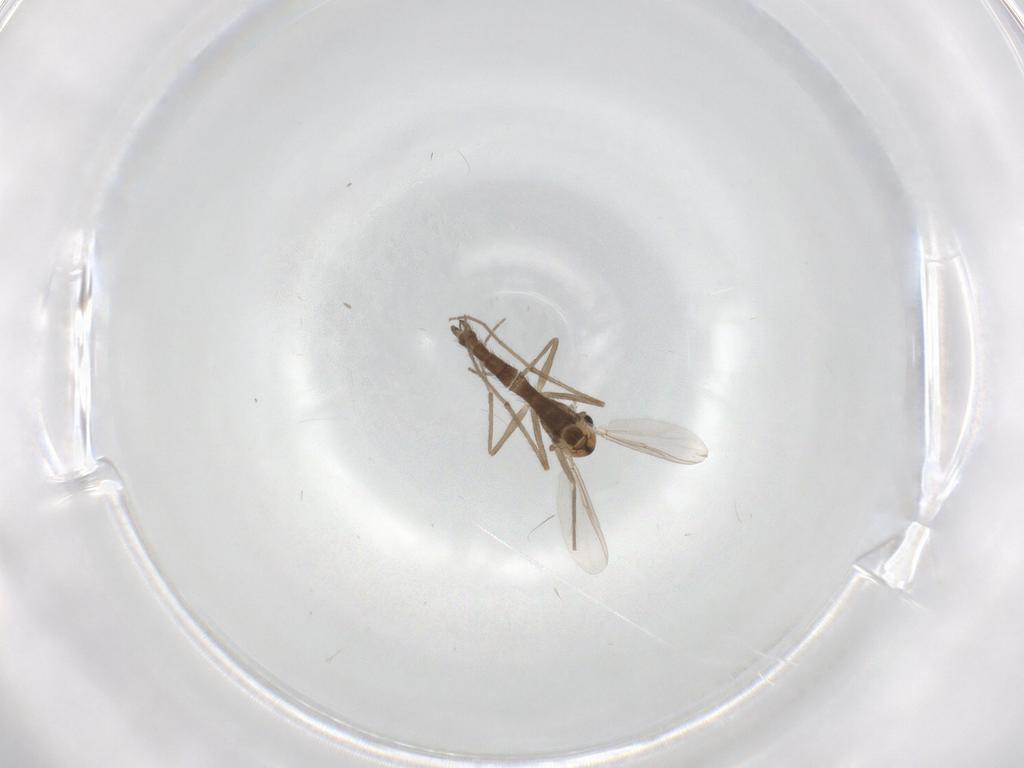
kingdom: Animalia
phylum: Arthropoda
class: Insecta
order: Diptera
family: Chironomidae
